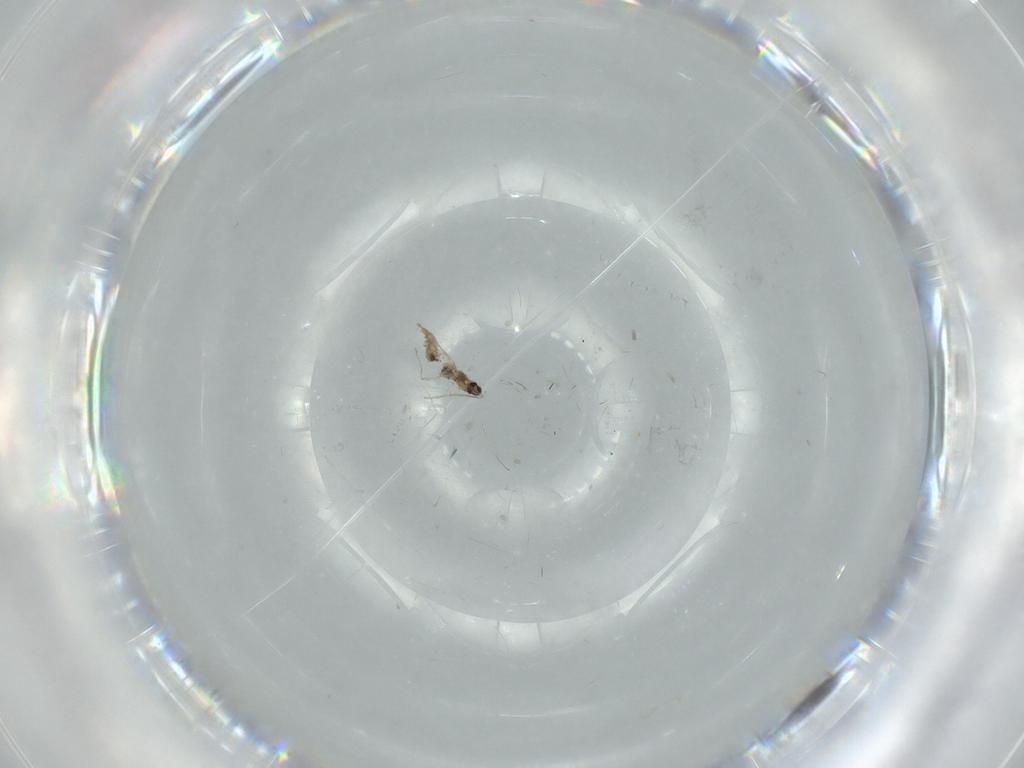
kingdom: Animalia
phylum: Arthropoda
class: Insecta
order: Diptera
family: Cecidomyiidae
